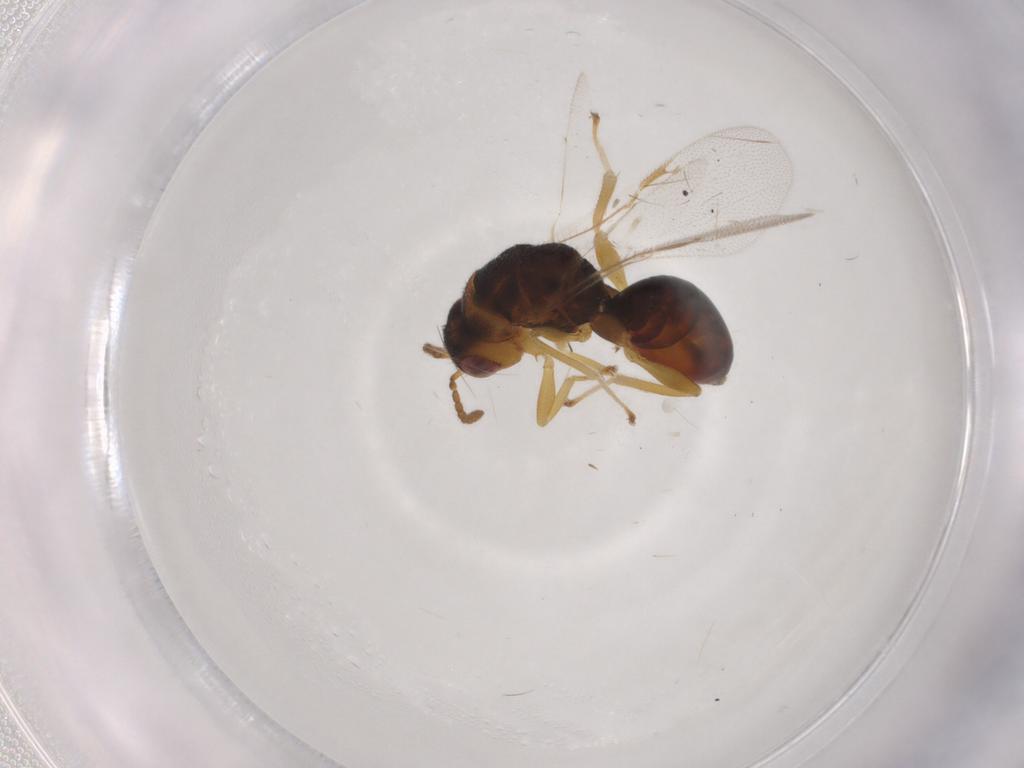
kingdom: Animalia
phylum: Arthropoda
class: Insecta
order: Hymenoptera
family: Eurytomidae
